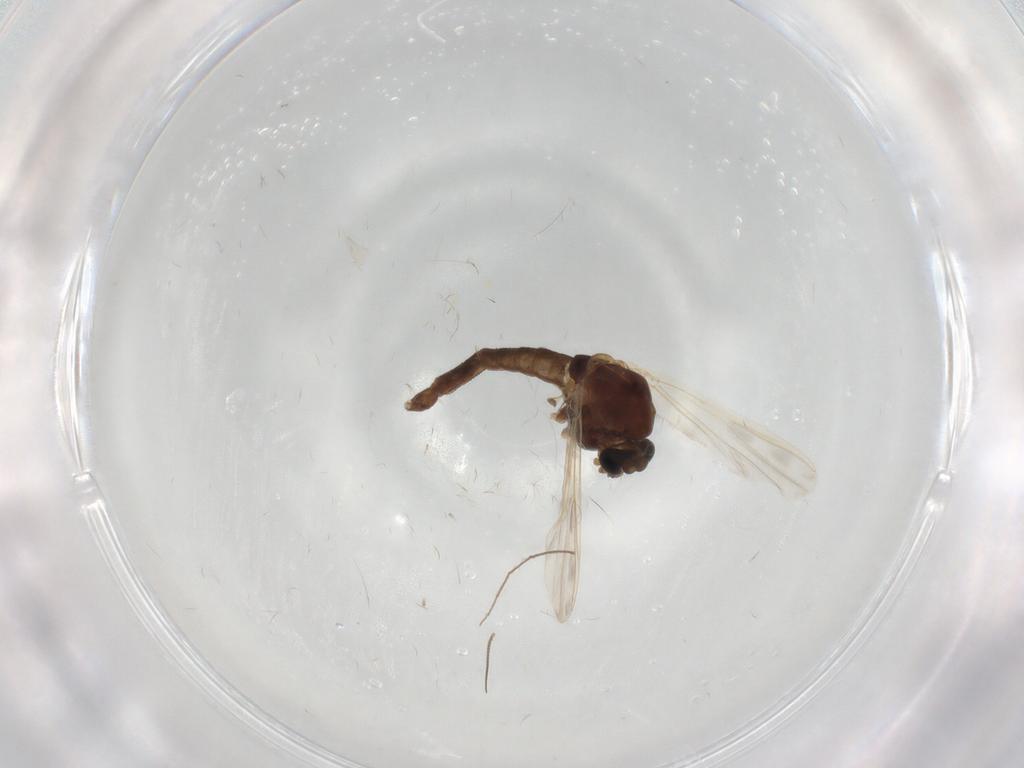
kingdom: Animalia
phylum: Arthropoda
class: Insecta
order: Diptera
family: Chironomidae
